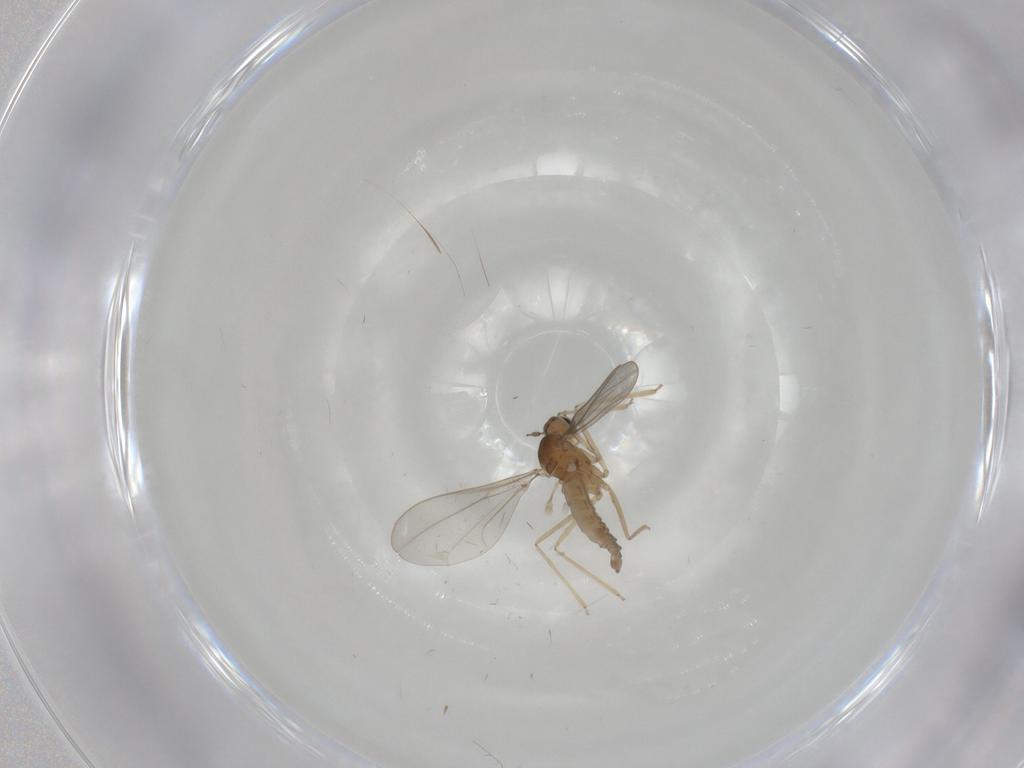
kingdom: Animalia
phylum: Arthropoda
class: Insecta
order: Diptera
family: Cecidomyiidae
